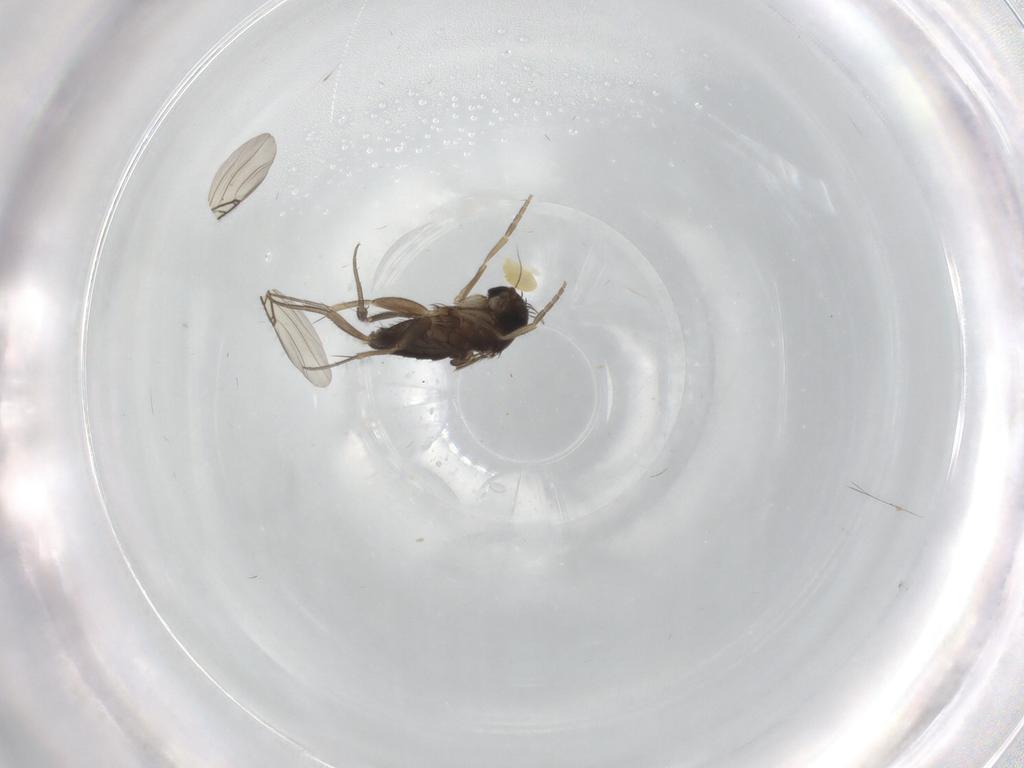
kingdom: Animalia
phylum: Arthropoda
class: Insecta
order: Diptera
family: Phoridae
